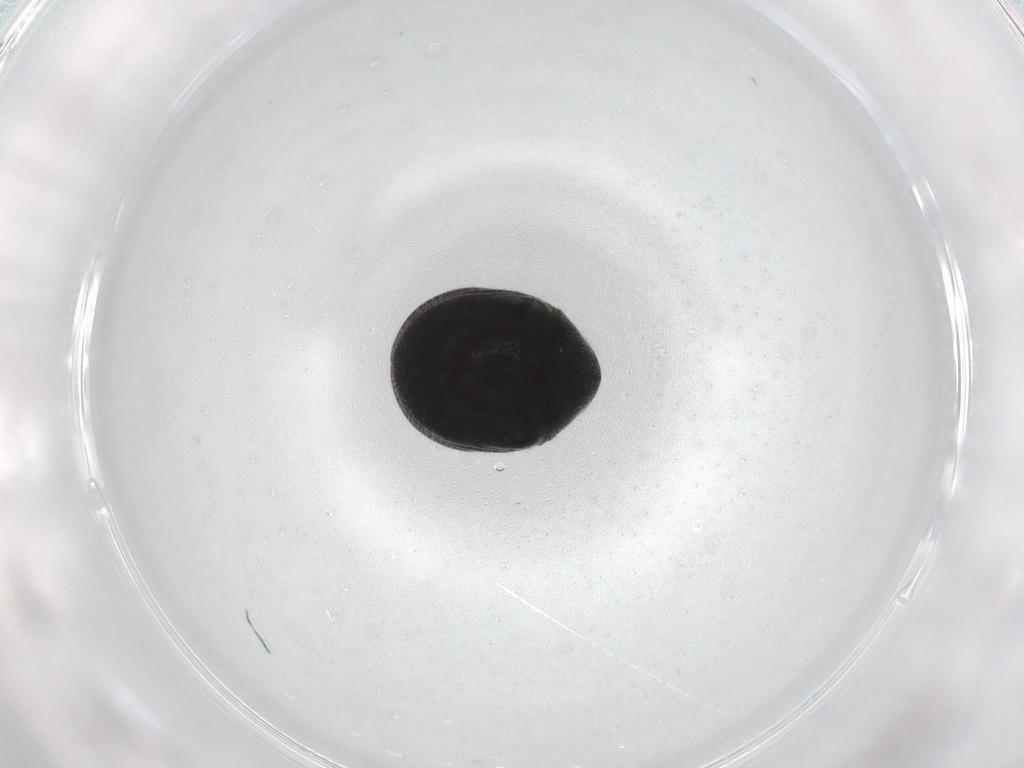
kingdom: Animalia
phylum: Arthropoda
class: Insecta
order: Coleoptera
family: Ptinidae
